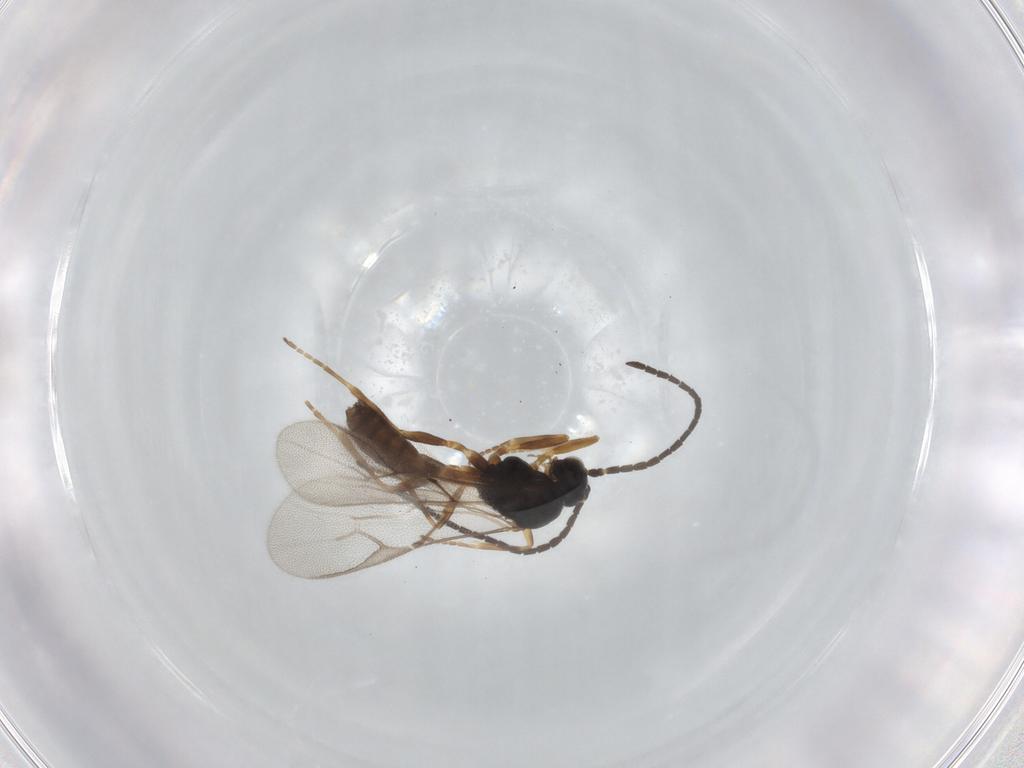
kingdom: Animalia
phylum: Arthropoda
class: Insecta
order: Hymenoptera
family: Braconidae
